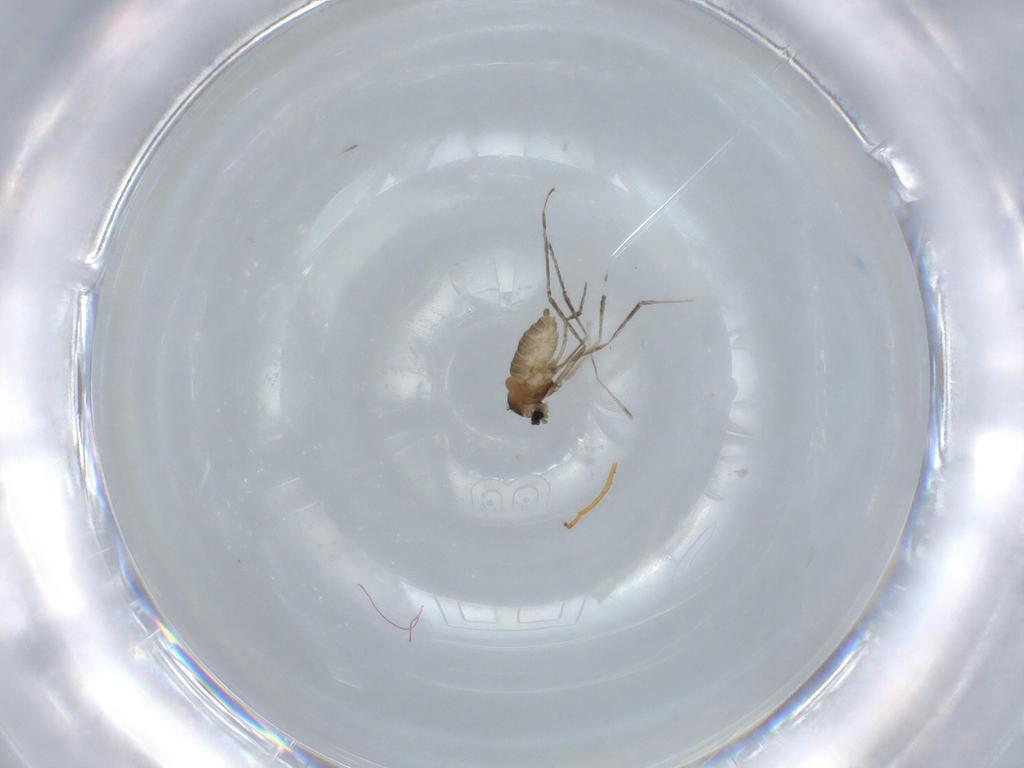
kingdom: Animalia
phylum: Arthropoda
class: Insecta
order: Diptera
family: Cecidomyiidae
